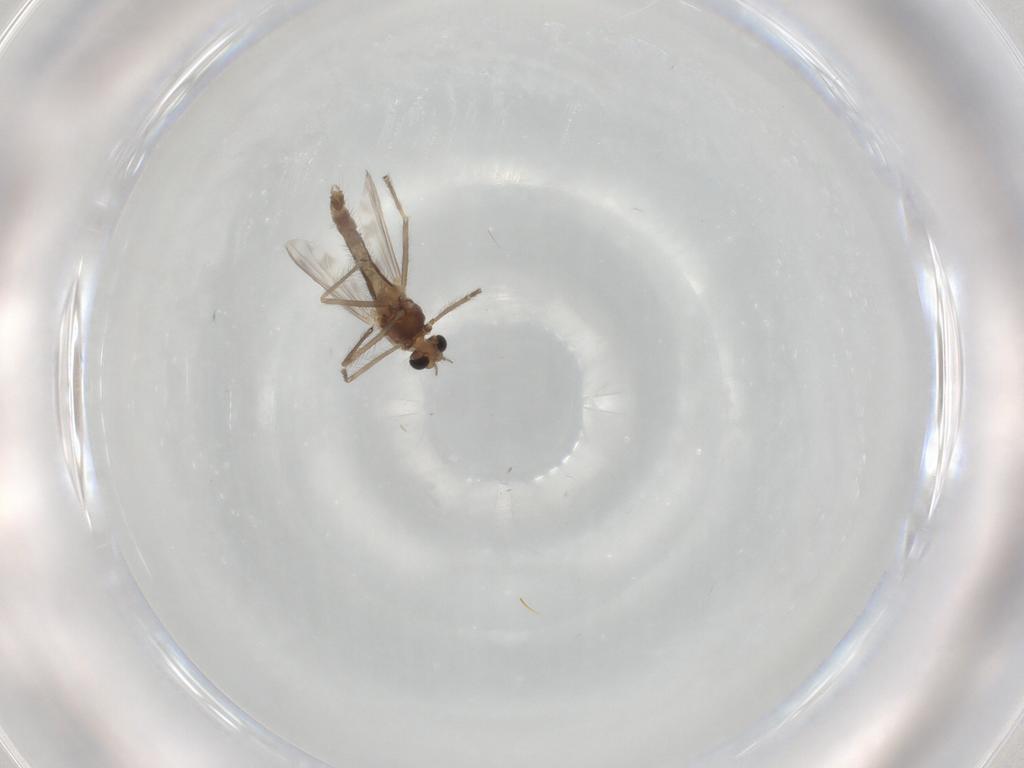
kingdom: Animalia
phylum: Arthropoda
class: Insecta
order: Diptera
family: Chironomidae
